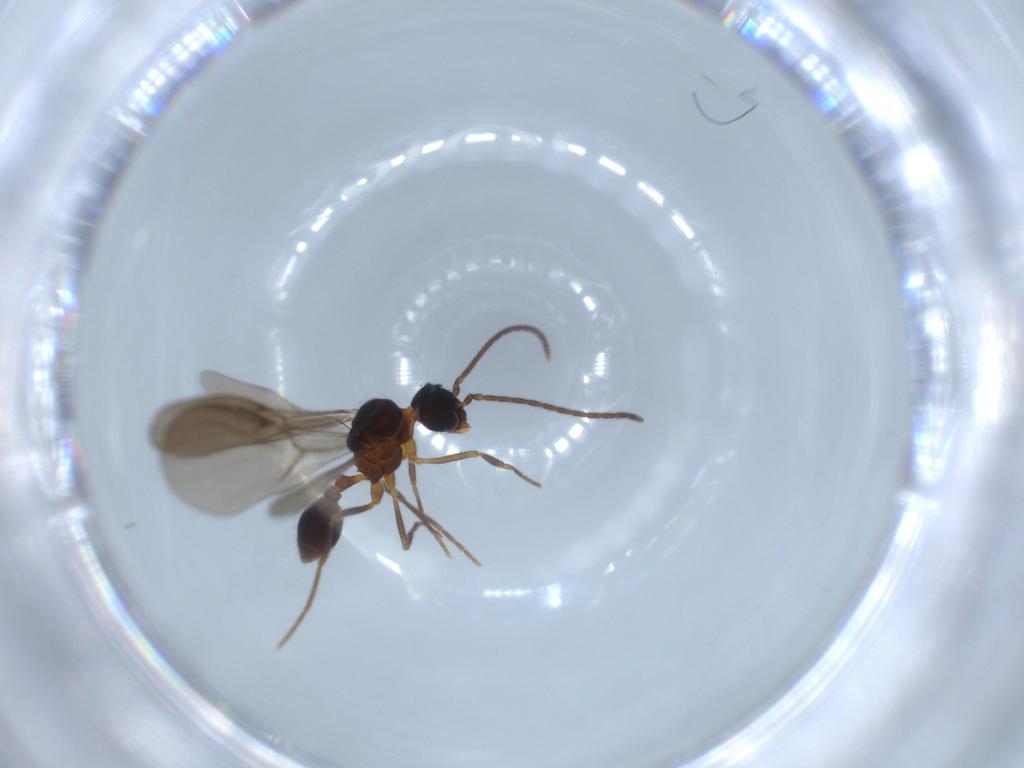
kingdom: Animalia
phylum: Arthropoda
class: Insecta
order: Hymenoptera
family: Formicidae
